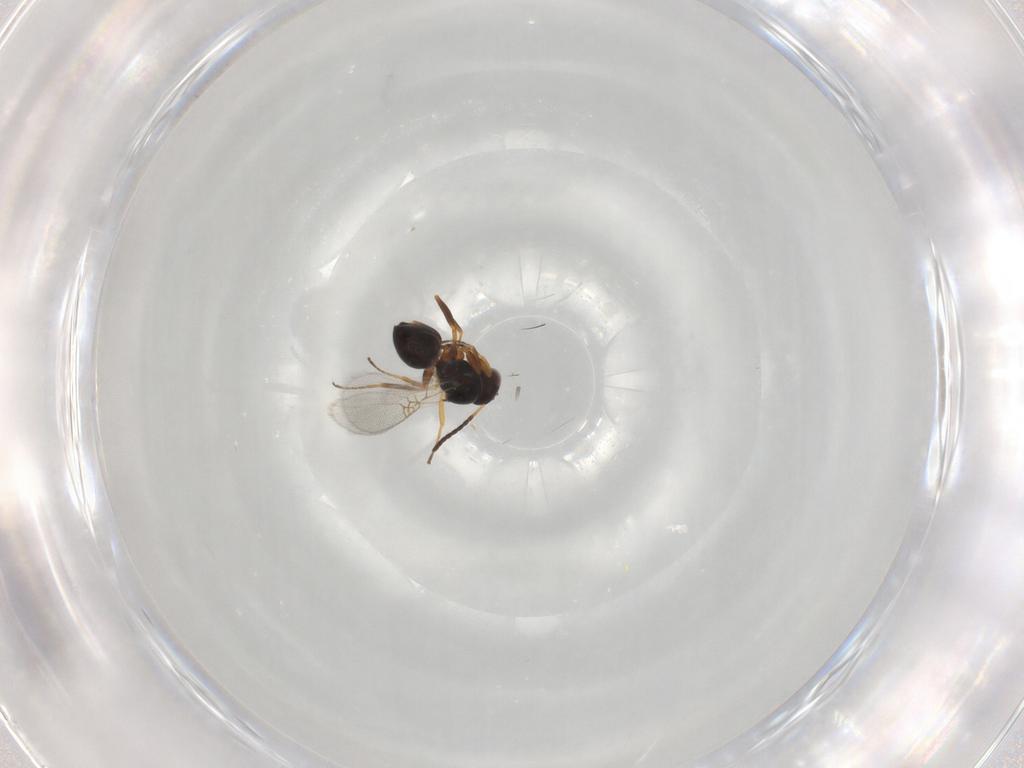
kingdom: Animalia
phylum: Arthropoda
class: Insecta
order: Hymenoptera
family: Figitidae
